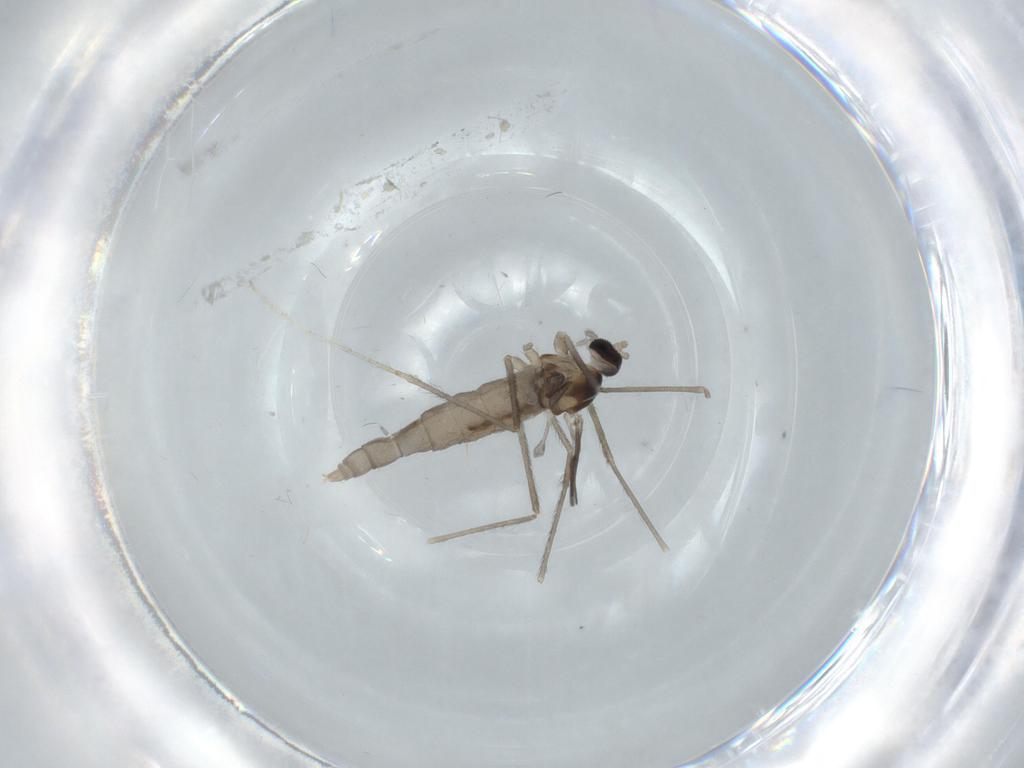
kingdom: Animalia
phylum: Arthropoda
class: Insecta
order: Diptera
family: Cecidomyiidae
